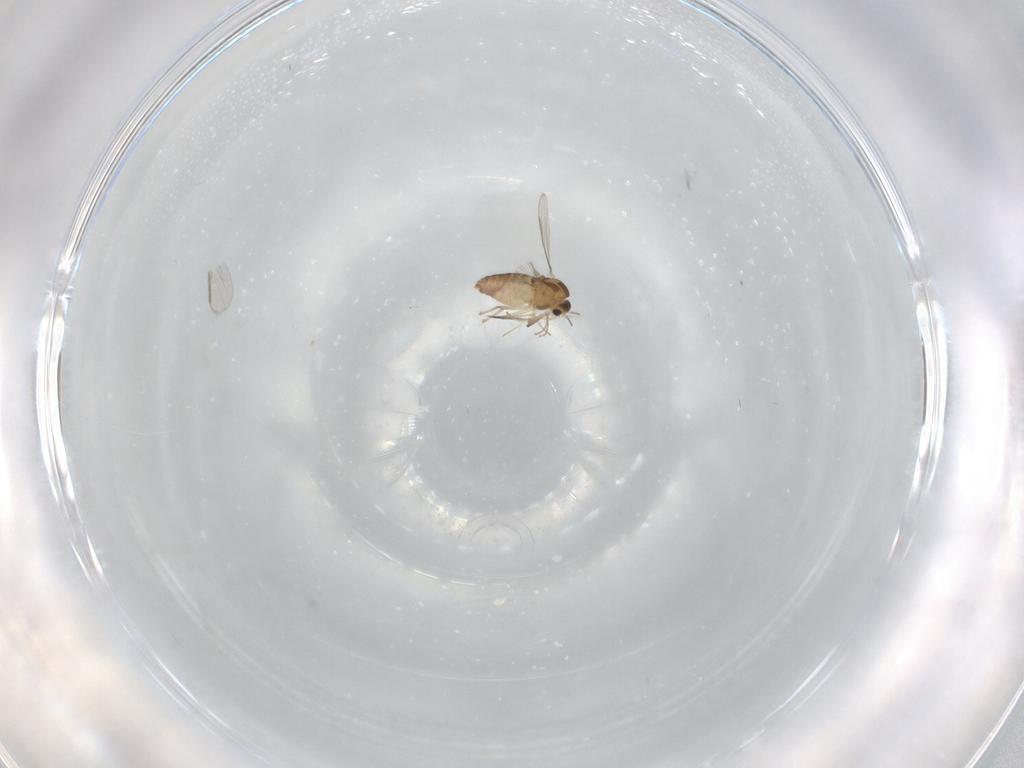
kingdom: Animalia
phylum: Arthropoda
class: Insecta
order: Diptera
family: Chironomidae
